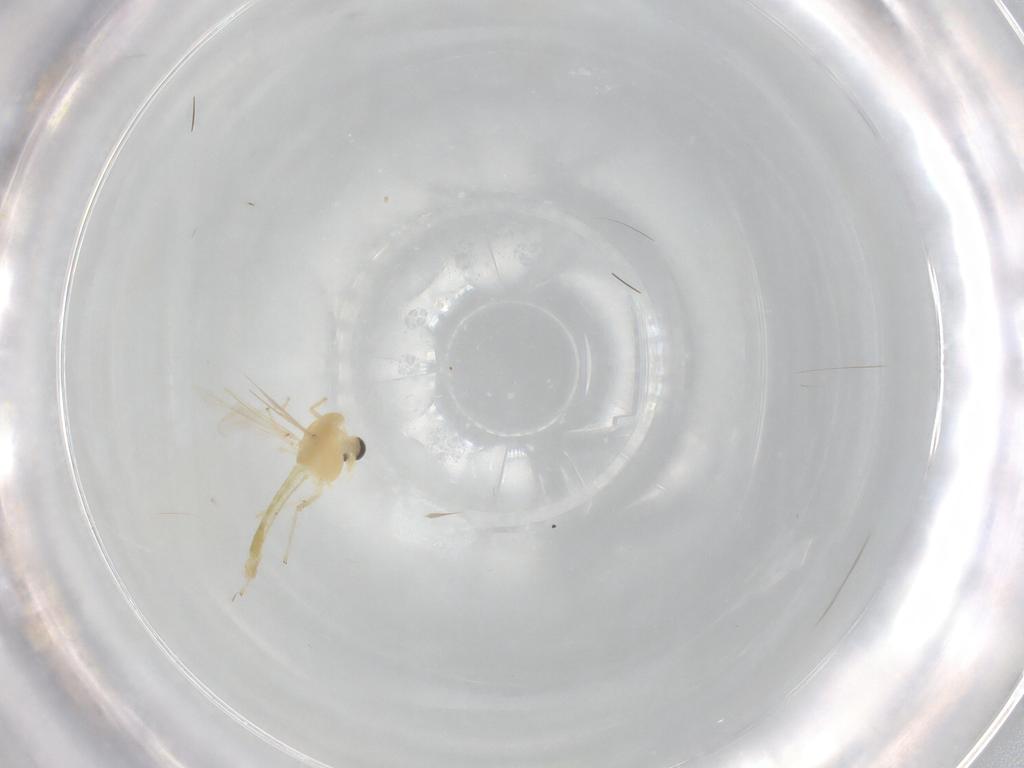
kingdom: Animalia
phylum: Arthropoda
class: Insecta
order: Diptera
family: Chironomidae
